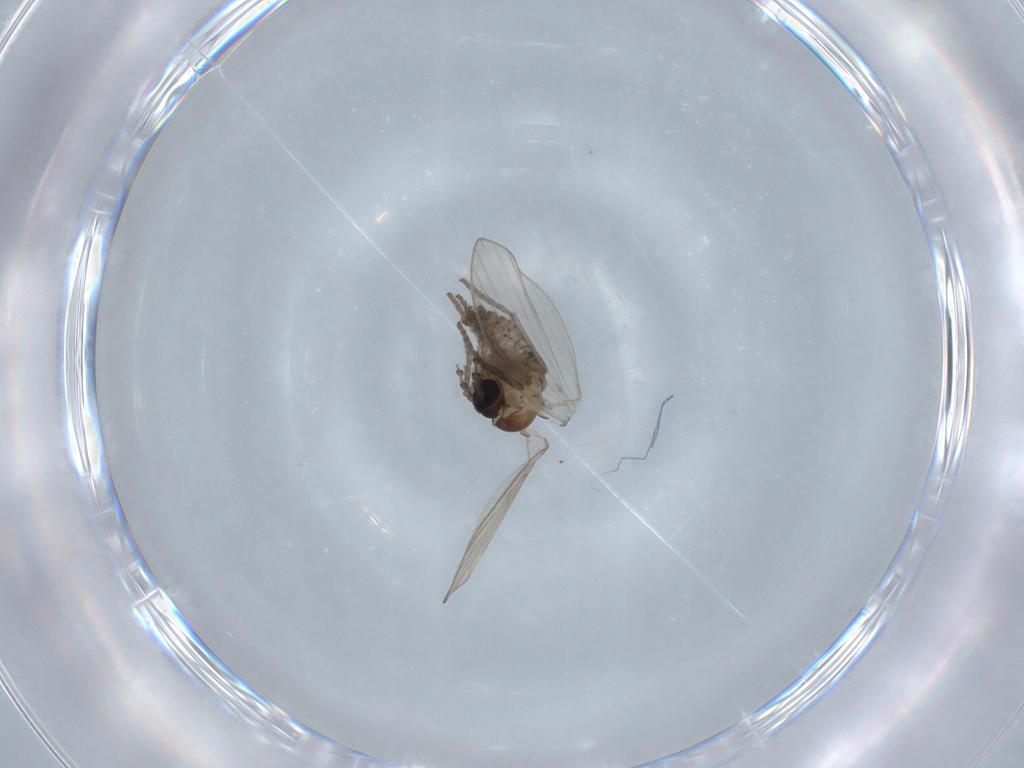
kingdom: Animalia
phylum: Arthropoda
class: Insecta
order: Diptera
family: Psychodidae
